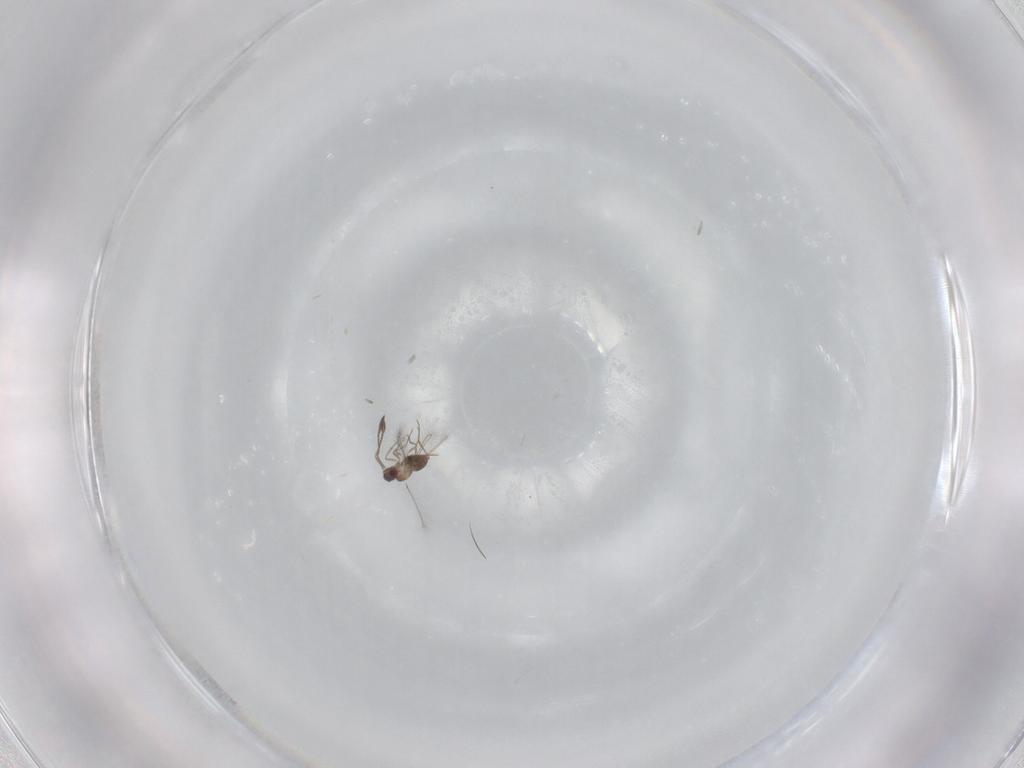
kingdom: Animalia
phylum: Arthropoda
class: Insecta
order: Hymenoptera
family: Mymaridae
